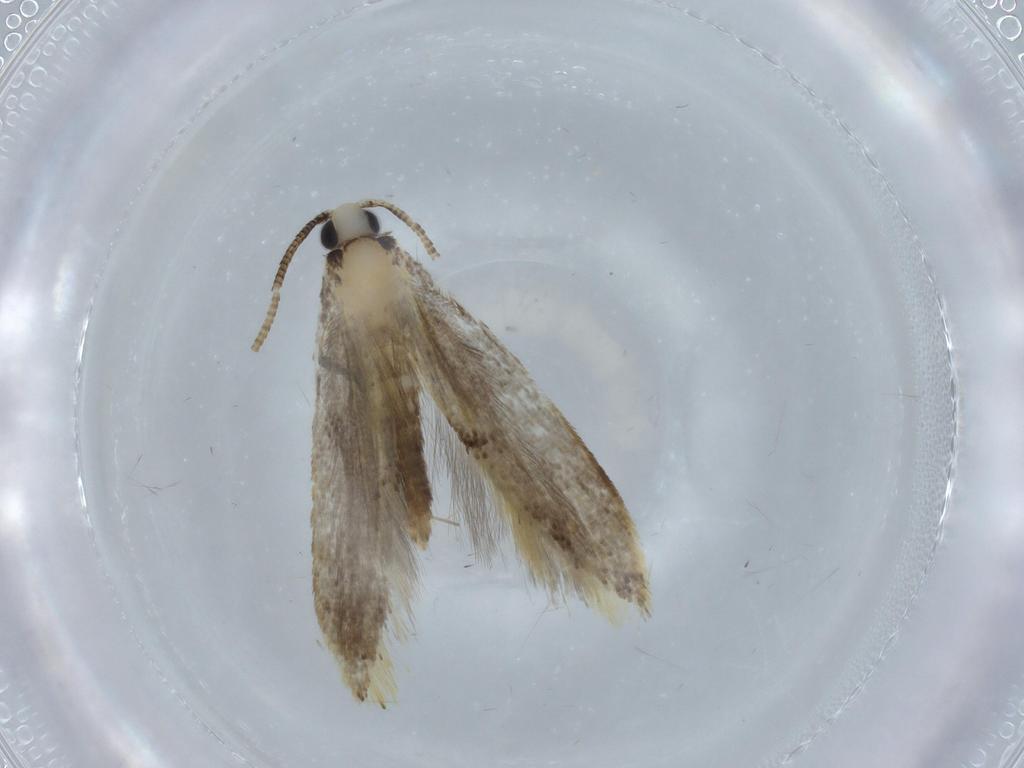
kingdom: Animalia
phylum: Arthropoda
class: Insecta
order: Lepidoptera
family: Tineidae
